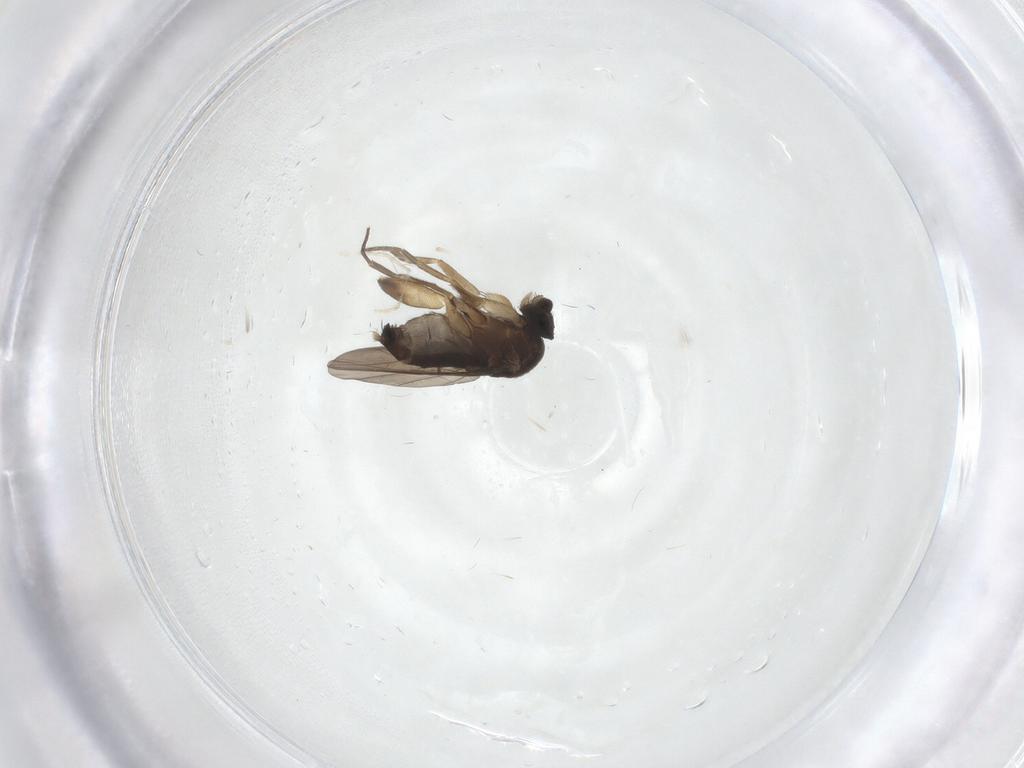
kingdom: Animalia
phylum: Arthropoda
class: Insecta
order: Diptera
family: Phoridae
